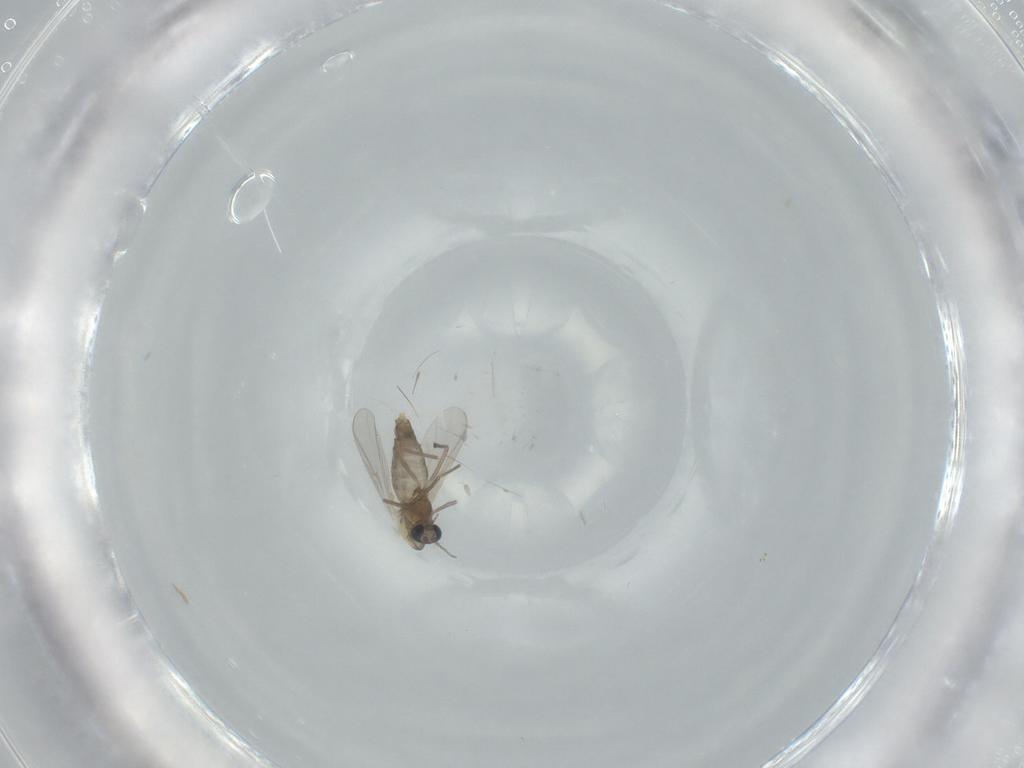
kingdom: Animalia
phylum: Arthropoda
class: Insecta
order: Diptera
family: Chironomidae
